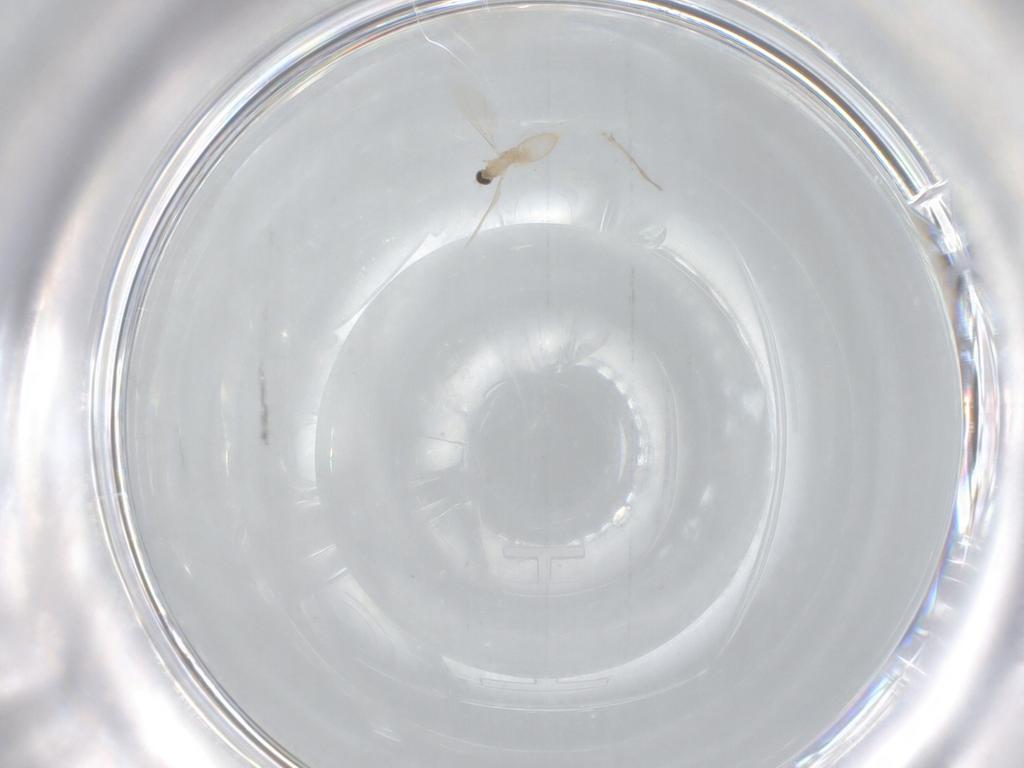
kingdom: Animalia
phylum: Arthropoda
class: Insecta
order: Diptera
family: Cecidomyiidae
